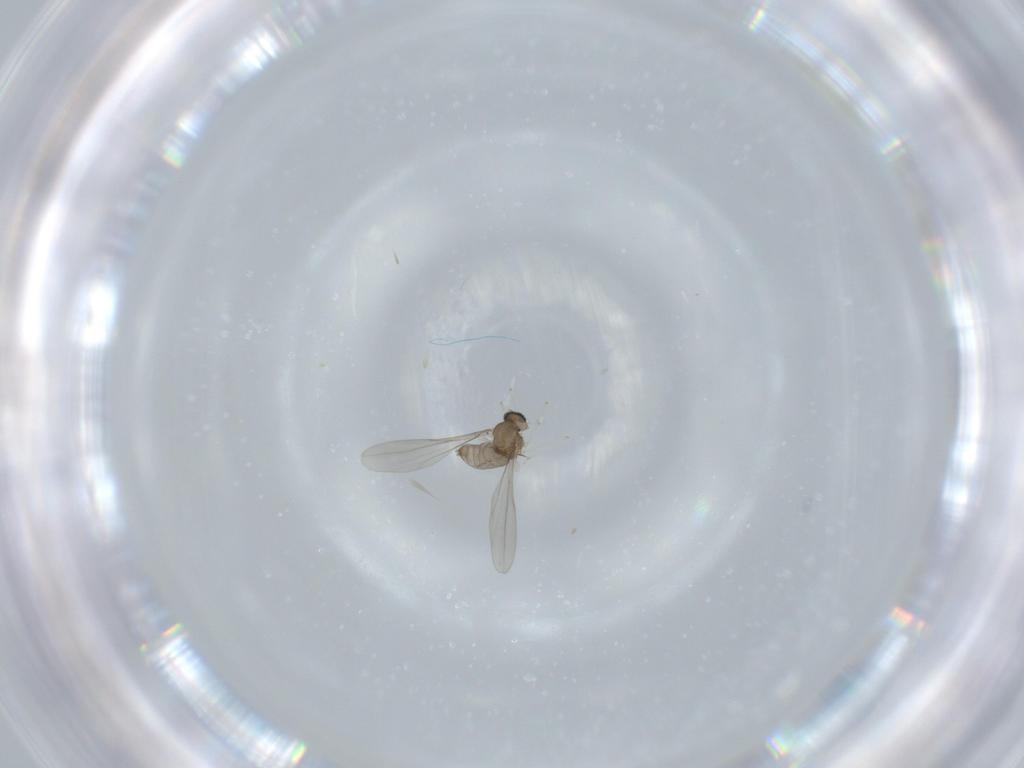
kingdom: Animalia
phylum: Arthropoda
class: Insecta
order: Diptera
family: Cecidomyiidae
